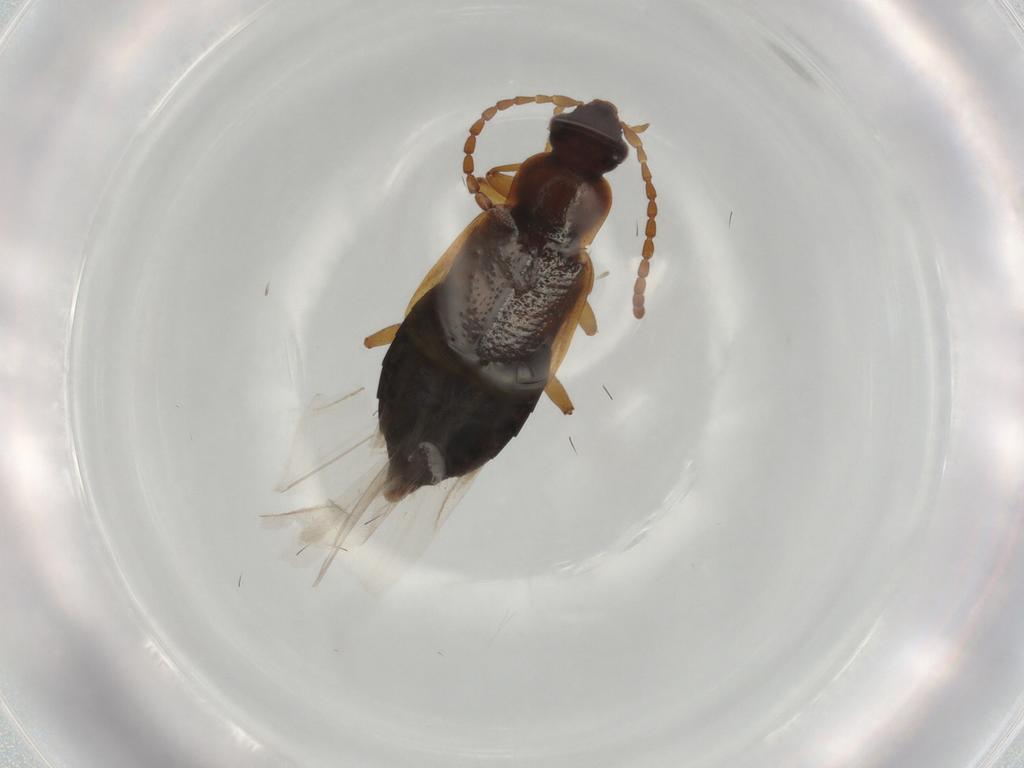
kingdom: Animalia
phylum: Arthropoda
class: Insecta
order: Coleoptera
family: Staphylinidae
